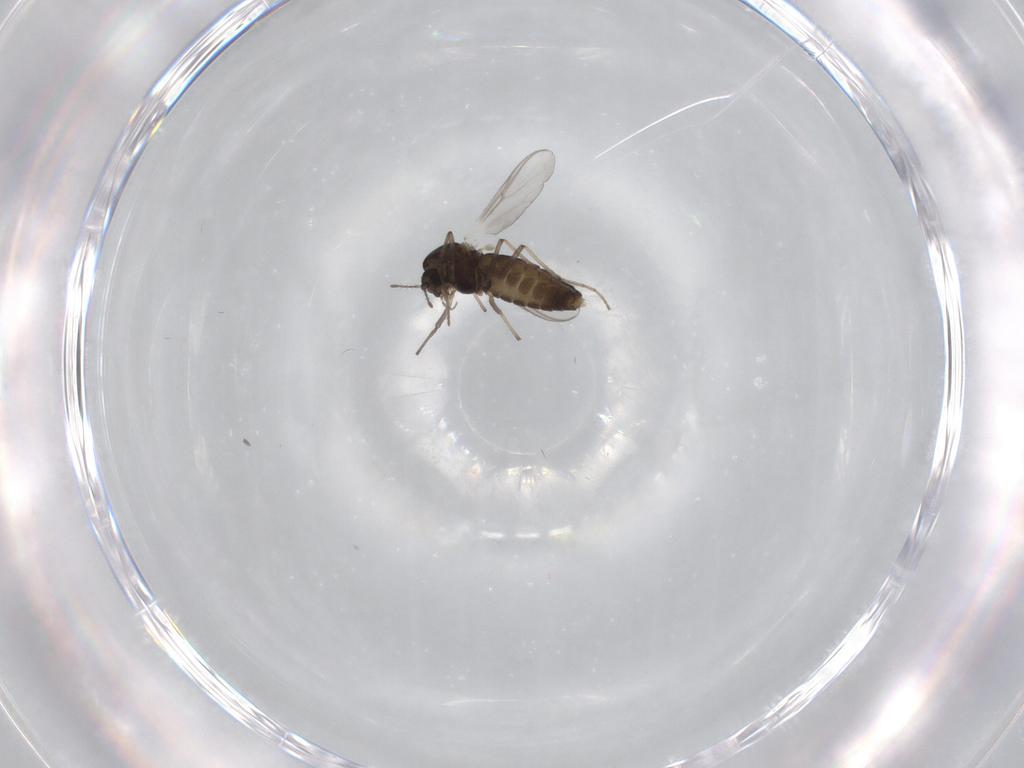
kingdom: Animalia
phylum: Arthropoda
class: Insecta
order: Diptera
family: Chironomidae
